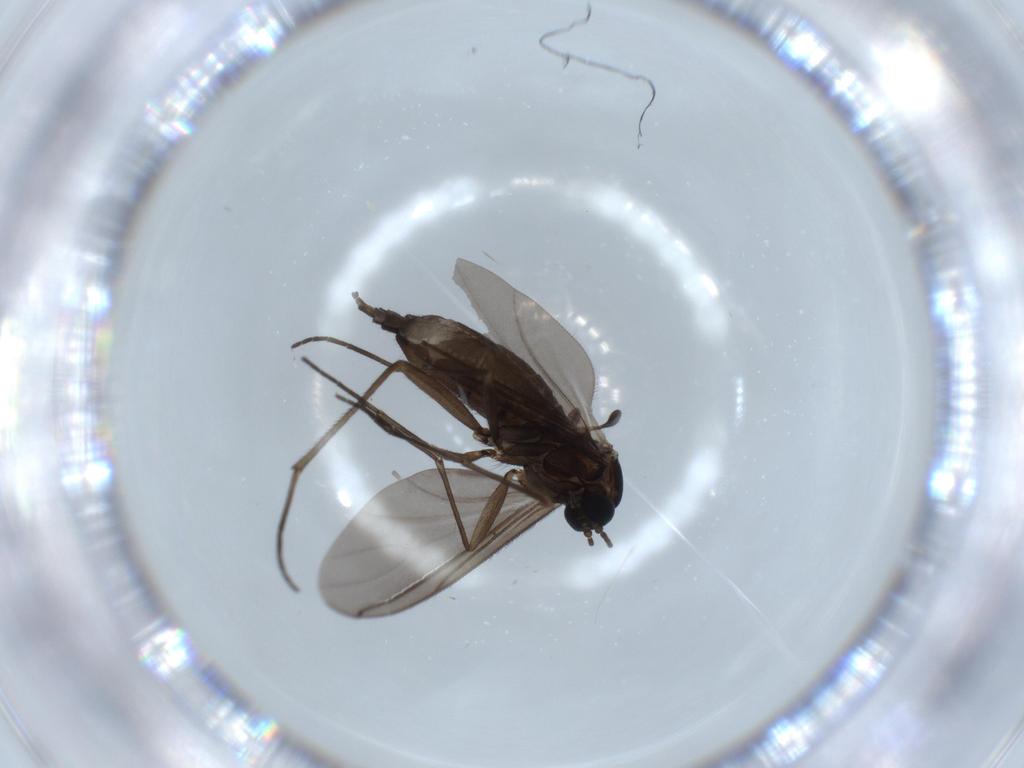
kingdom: Animalia
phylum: Arthropoda
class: Insecta
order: Diptera
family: Sciaridae
